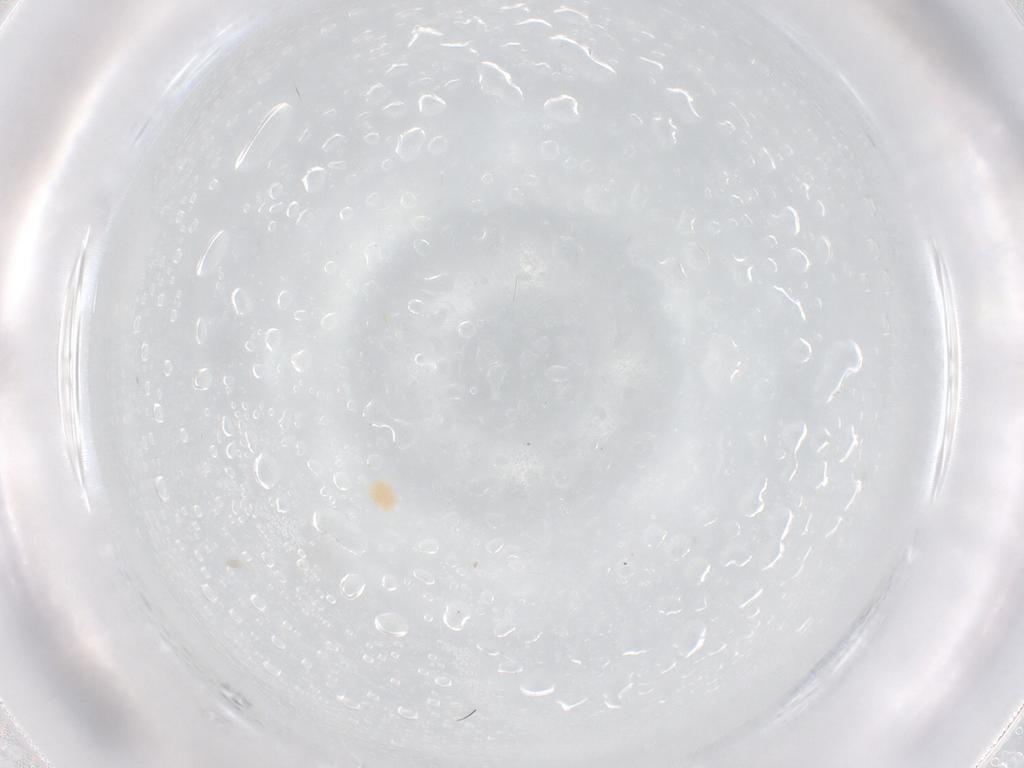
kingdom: Animalia
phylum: Arthropoda
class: Arachnida
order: Trombidiformes
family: Microtrombidiidae
